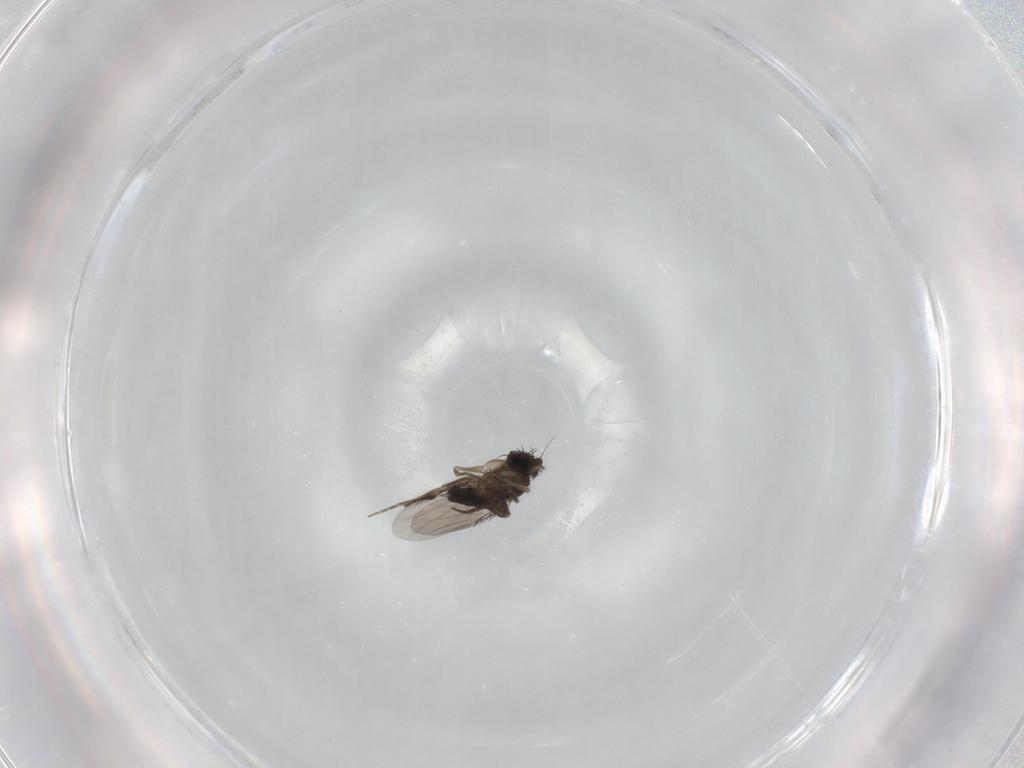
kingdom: Animalia
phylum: Arthropoda
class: Insecta
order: Diptera
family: Phoridae
